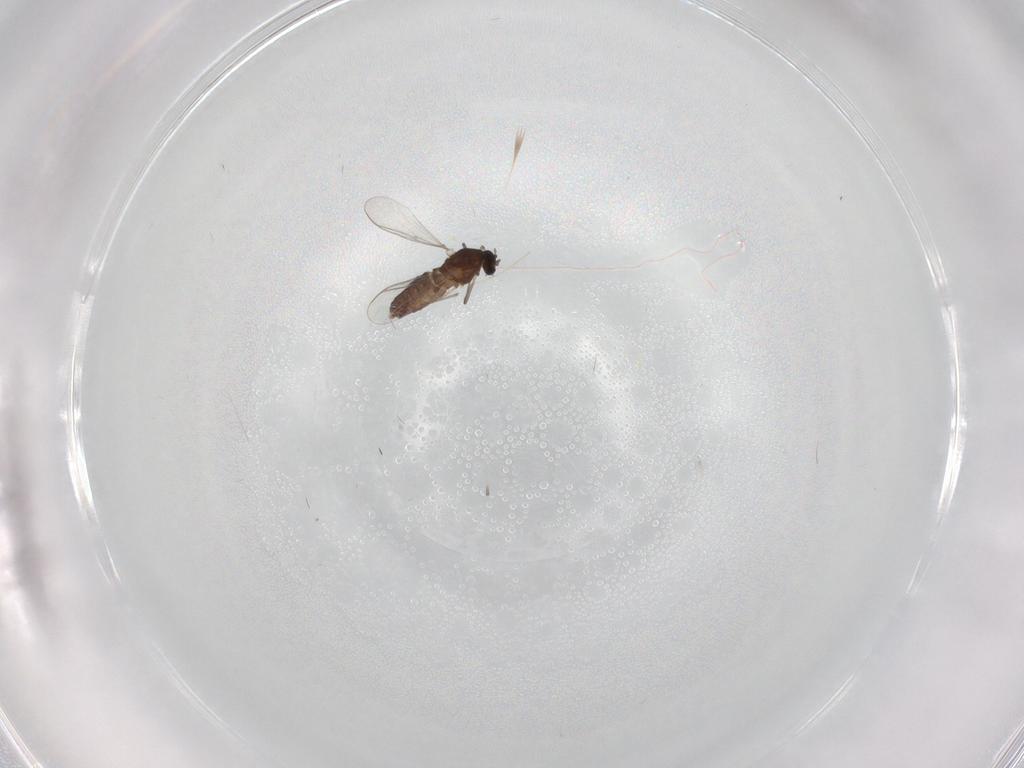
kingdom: Animalia
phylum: Arthropoda
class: Insecta
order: Diptera
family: Chironomidae
